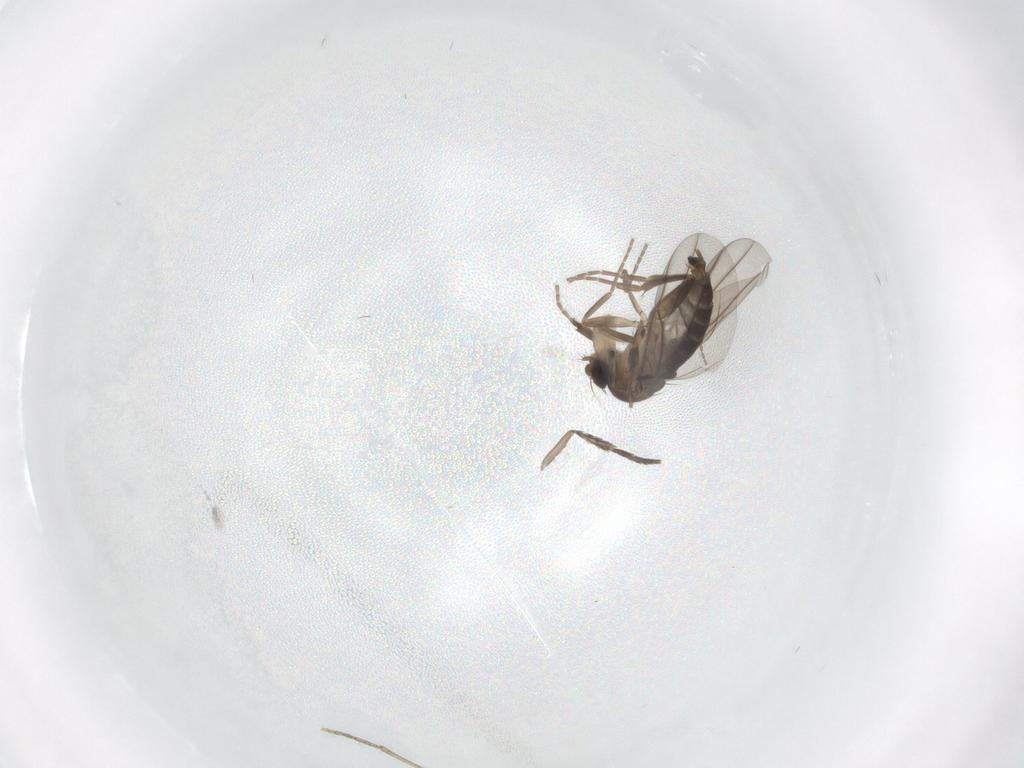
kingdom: Animalia
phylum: Arthropoda
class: Insecta
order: Diptera
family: Phoridae
